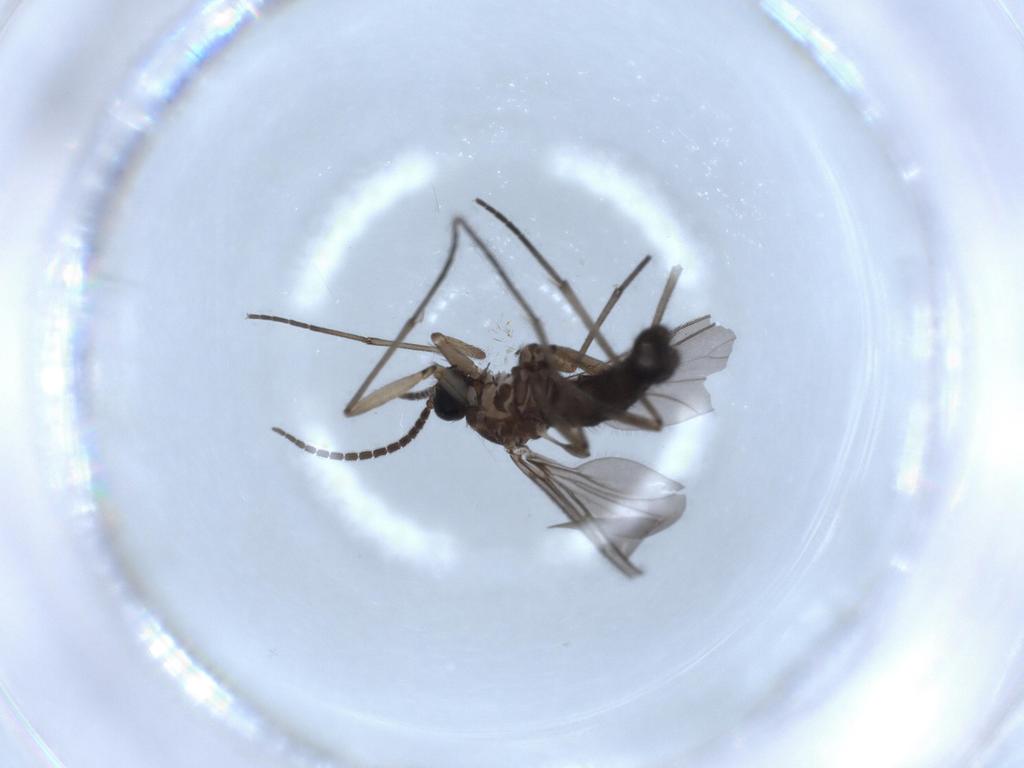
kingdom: Animalia
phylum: Arthropoda
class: Insecta
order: Diptera
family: Sciaridae
